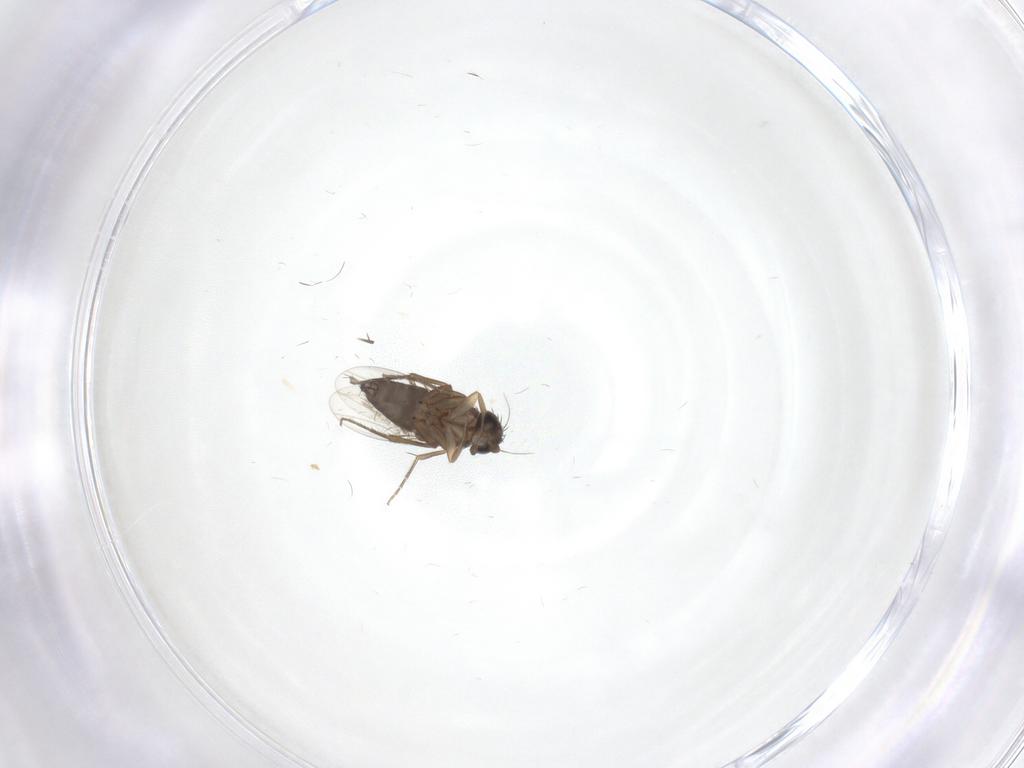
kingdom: Animalia
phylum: Arthropoda
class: Insecta
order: Diptera
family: Phoridae
